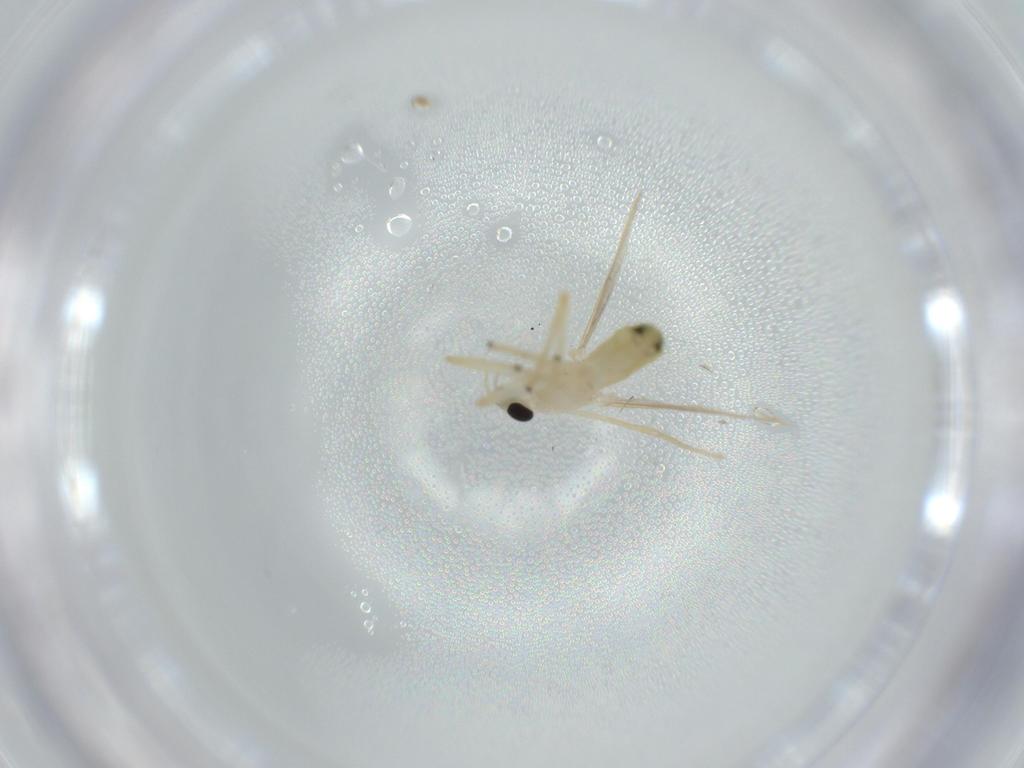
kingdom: Animalia
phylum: Arthropoda
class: Insecta
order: Diptera
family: Chironomidae
